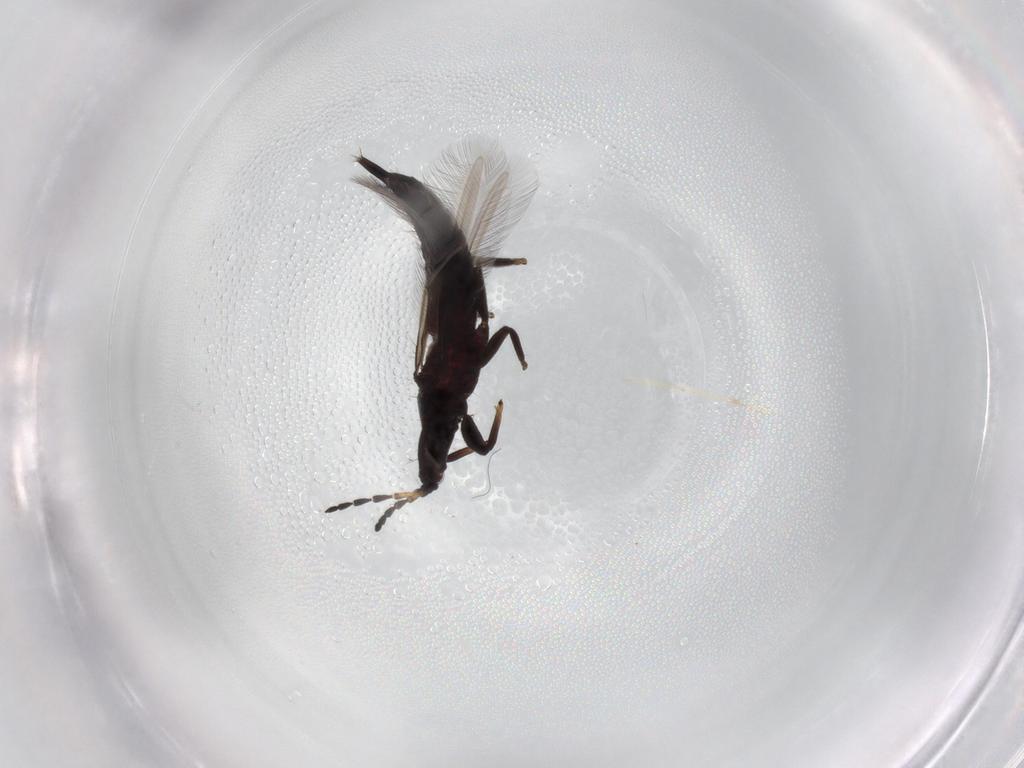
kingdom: Animalia
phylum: Arthropoda
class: Insecta
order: Thysanoptera
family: Phlaeothripidae
